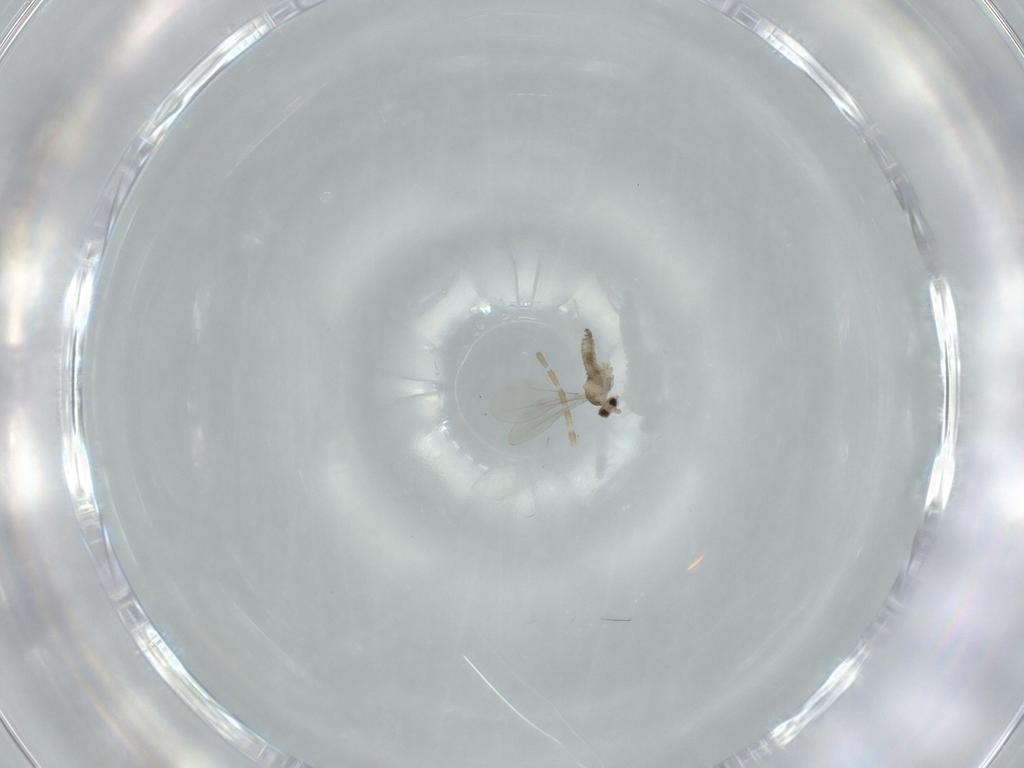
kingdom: Animalia
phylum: Arthropoda
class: Insecta
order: Diptera
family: Cecidomyiidae
